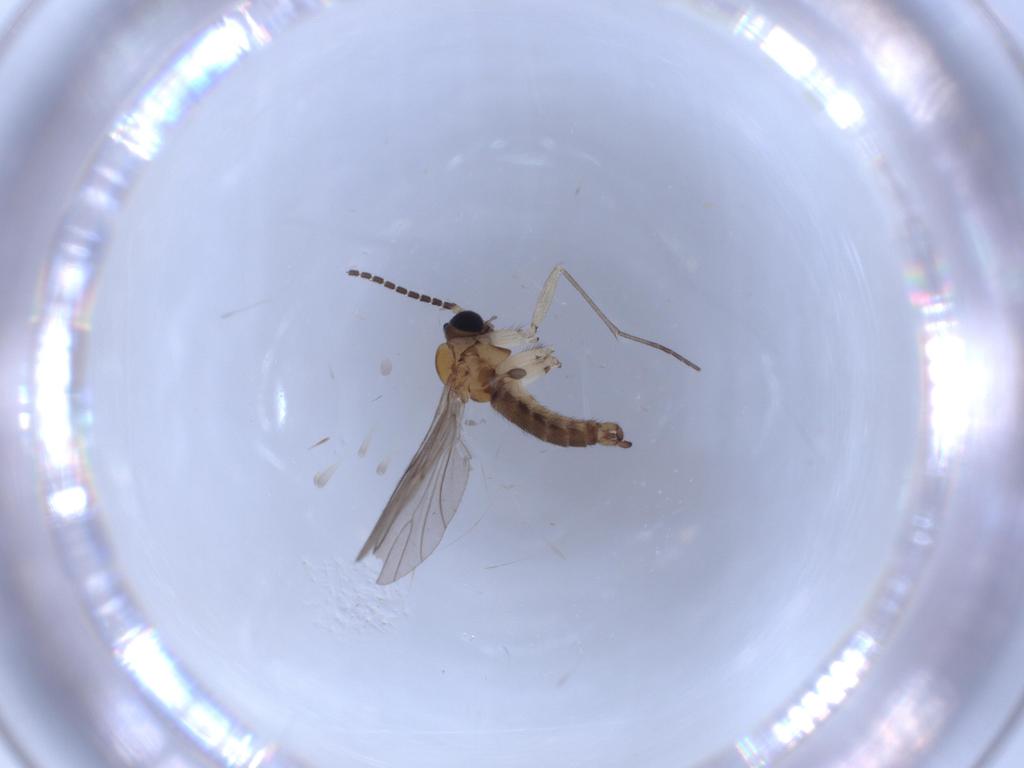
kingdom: Animalia
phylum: Arthropoda
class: Insecta
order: Diptera
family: Sciaridae
